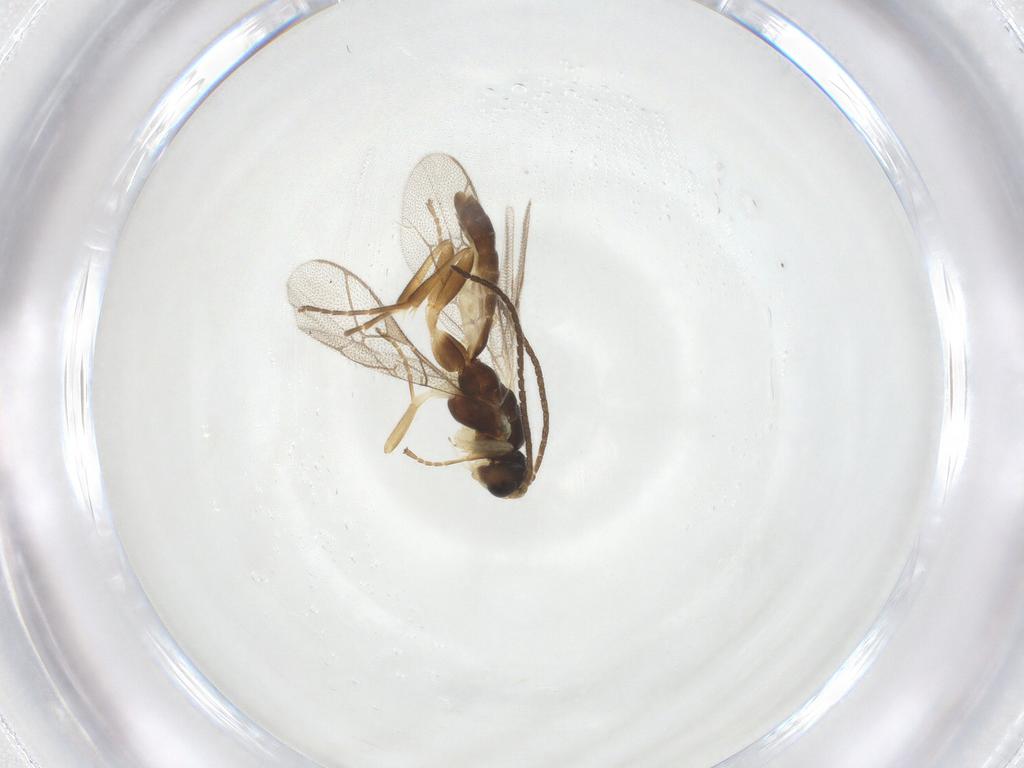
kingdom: Animalia
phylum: Arthropoda
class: Insecta
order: Hymenoptera
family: Ichneumonidae
